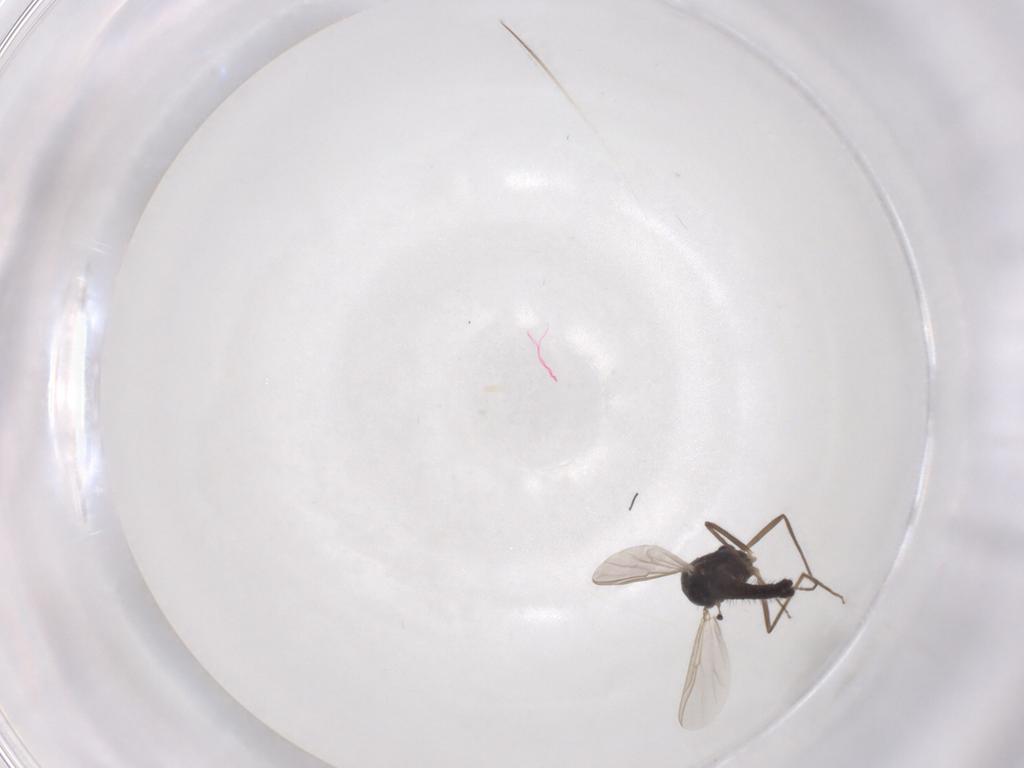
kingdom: Animalia
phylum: Arthropoda
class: Insecta
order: Diptera
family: Chironomidae
